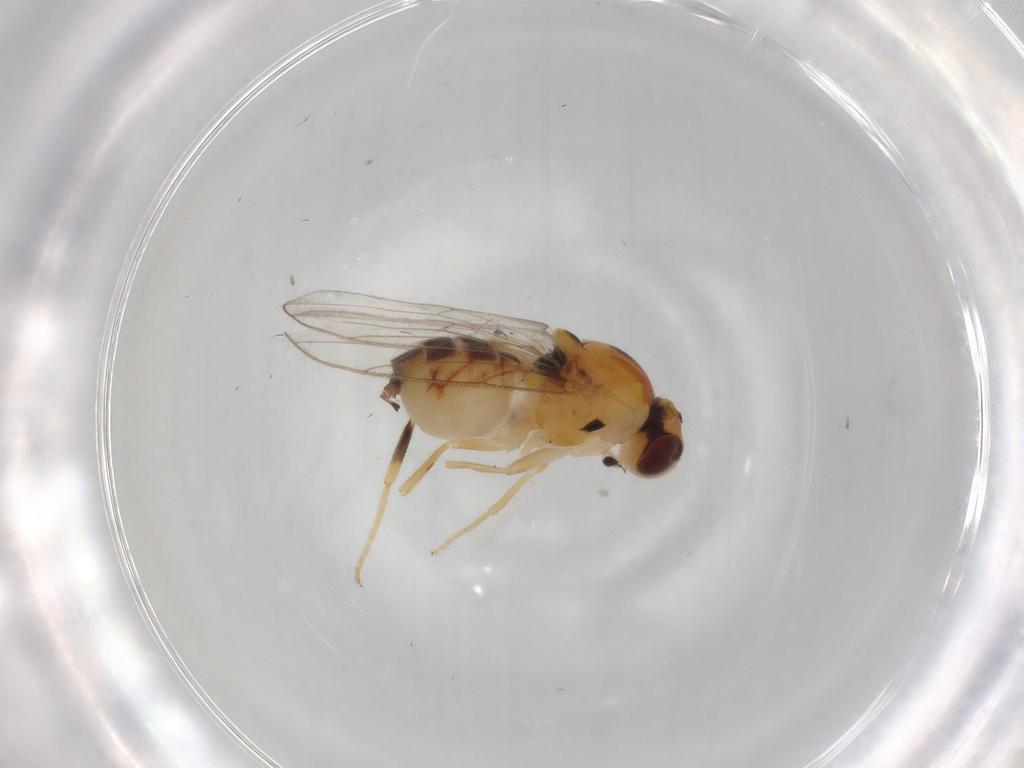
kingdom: Animalia
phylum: Arthropoda
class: Insecta
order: Diptera
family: Chloropidae
